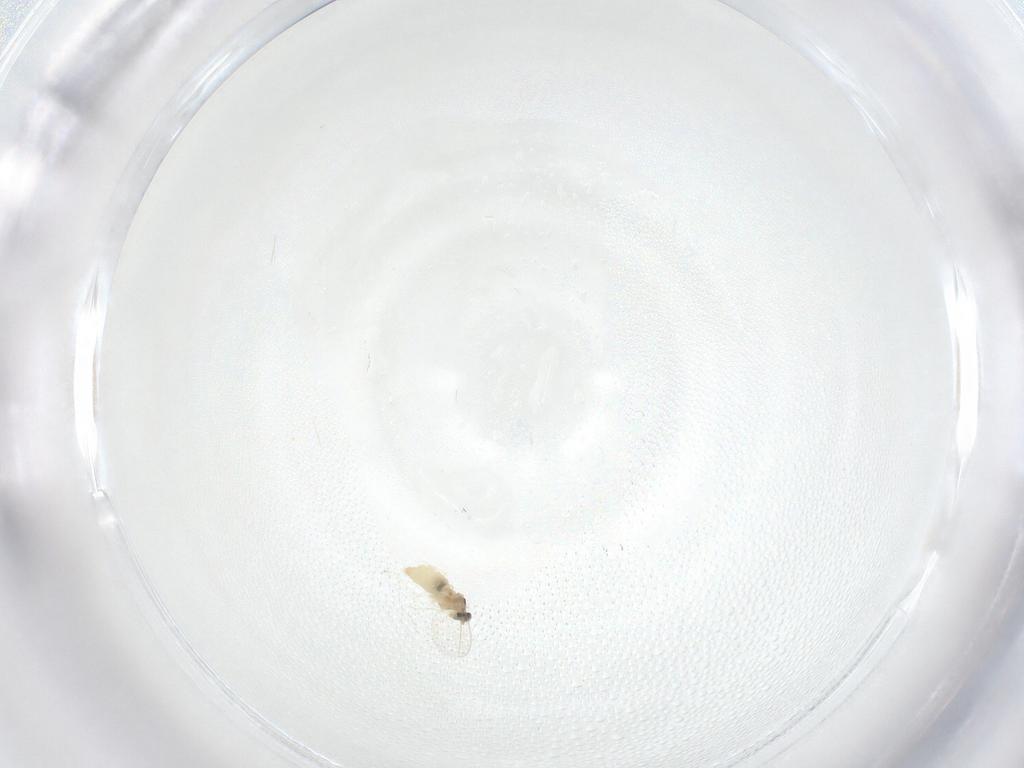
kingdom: Animalia
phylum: Arthropoda
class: Insecta
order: Diptera
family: Cecidomyiidae
